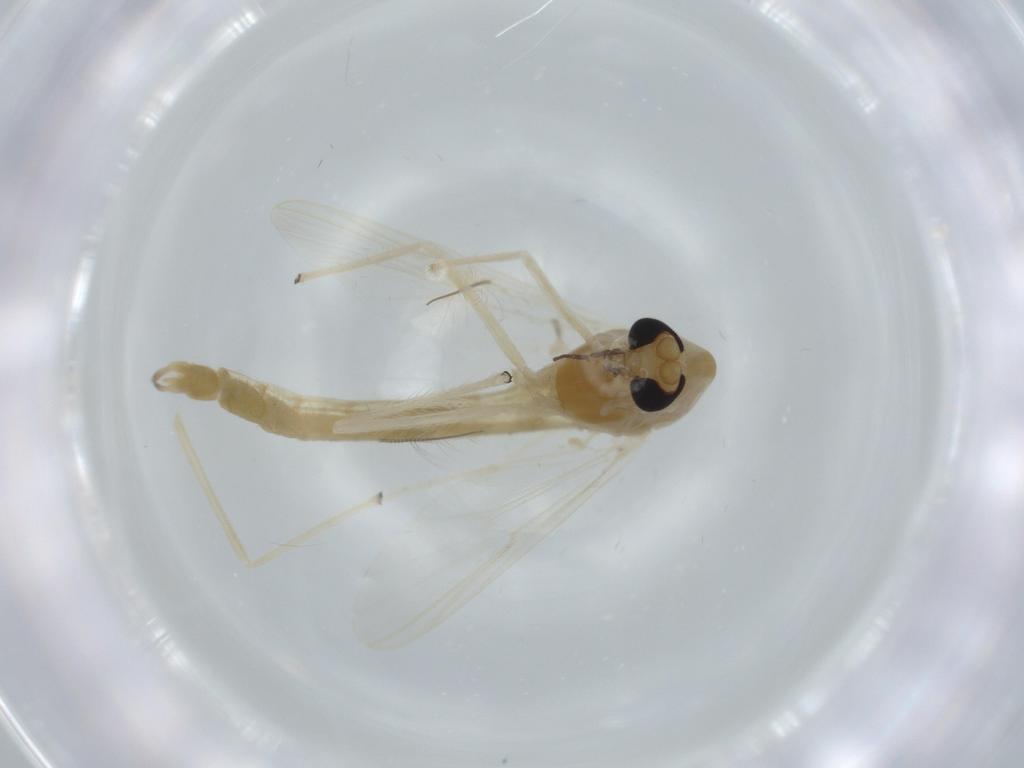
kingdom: Animalia
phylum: Arthropoda
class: Insecta
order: Diptera
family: Chironomidae
